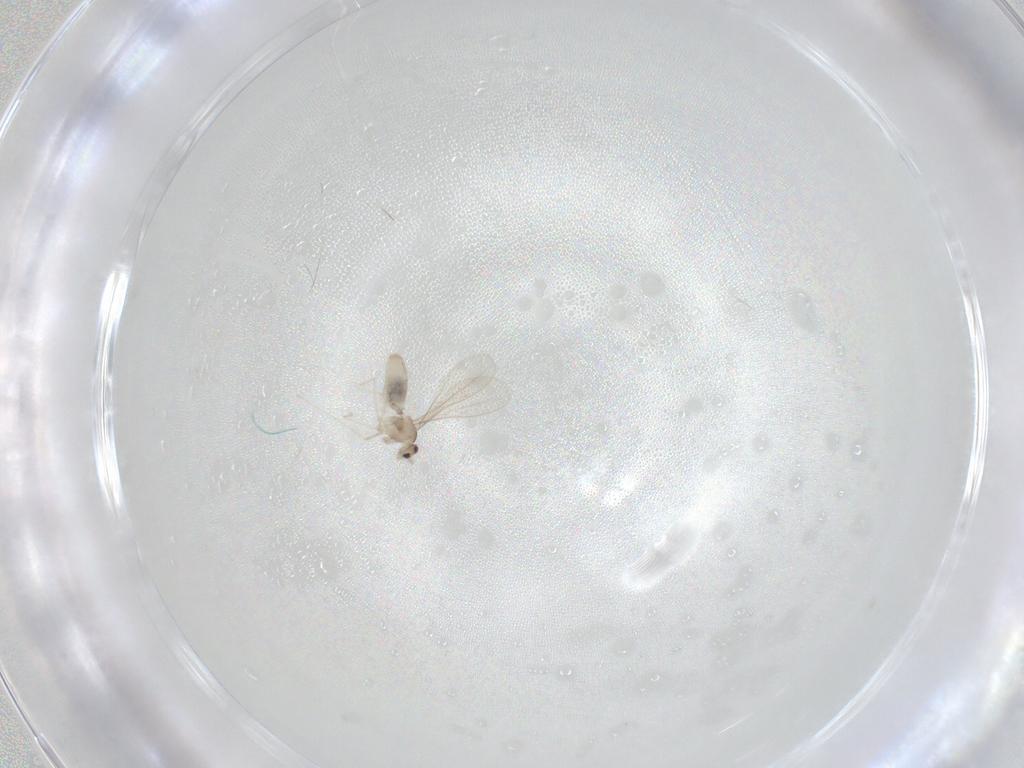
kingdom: Animalia
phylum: Arthropoda
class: Insecta
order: Diptera
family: Cecidomyiidae
